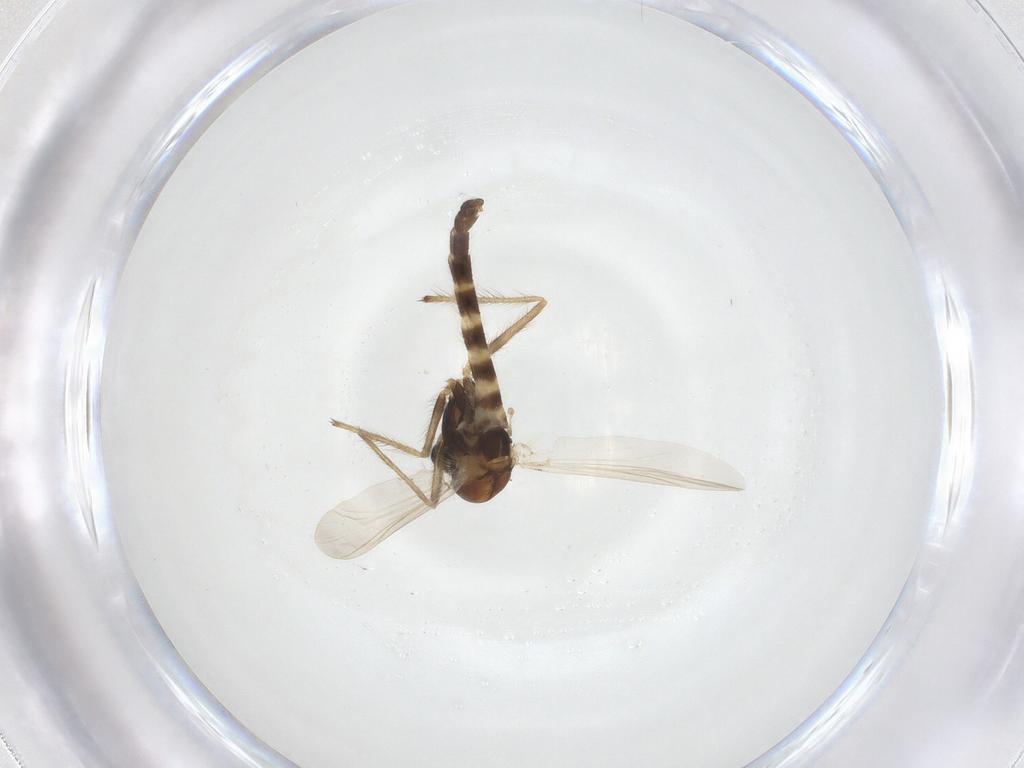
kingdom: Animalia
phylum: Arthropoda
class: Insecta
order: Diptera
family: Chironomidae
